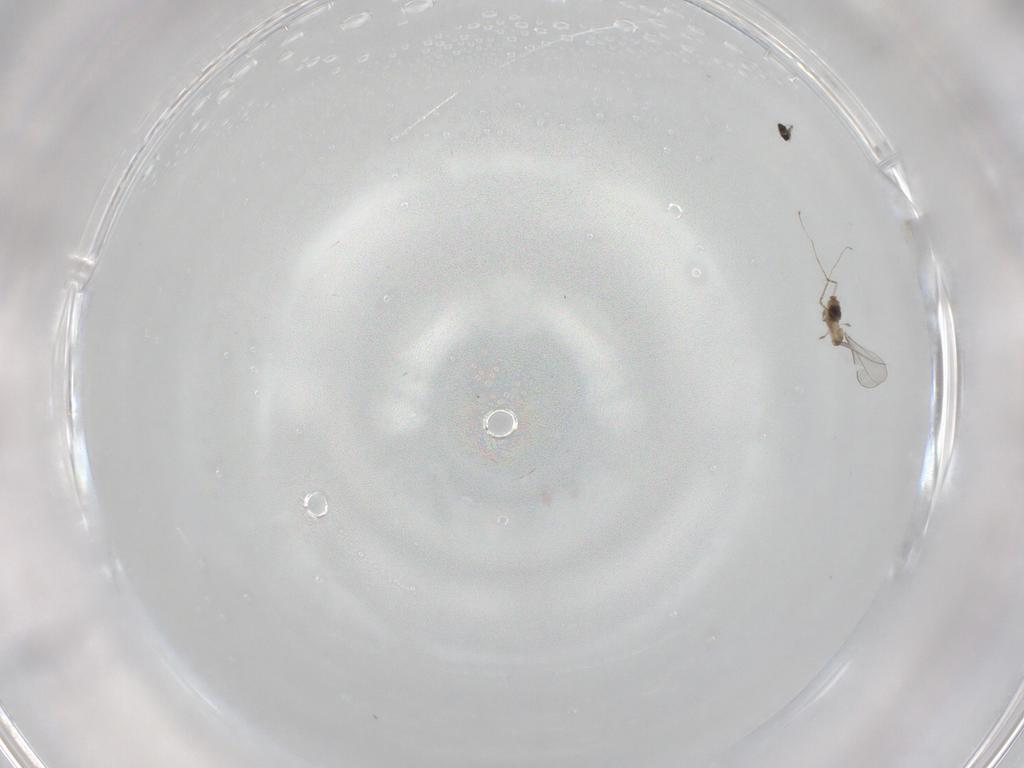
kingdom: Animalia
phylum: Arthropoda
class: Insecta
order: Diptera
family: Cecidomyiidae
